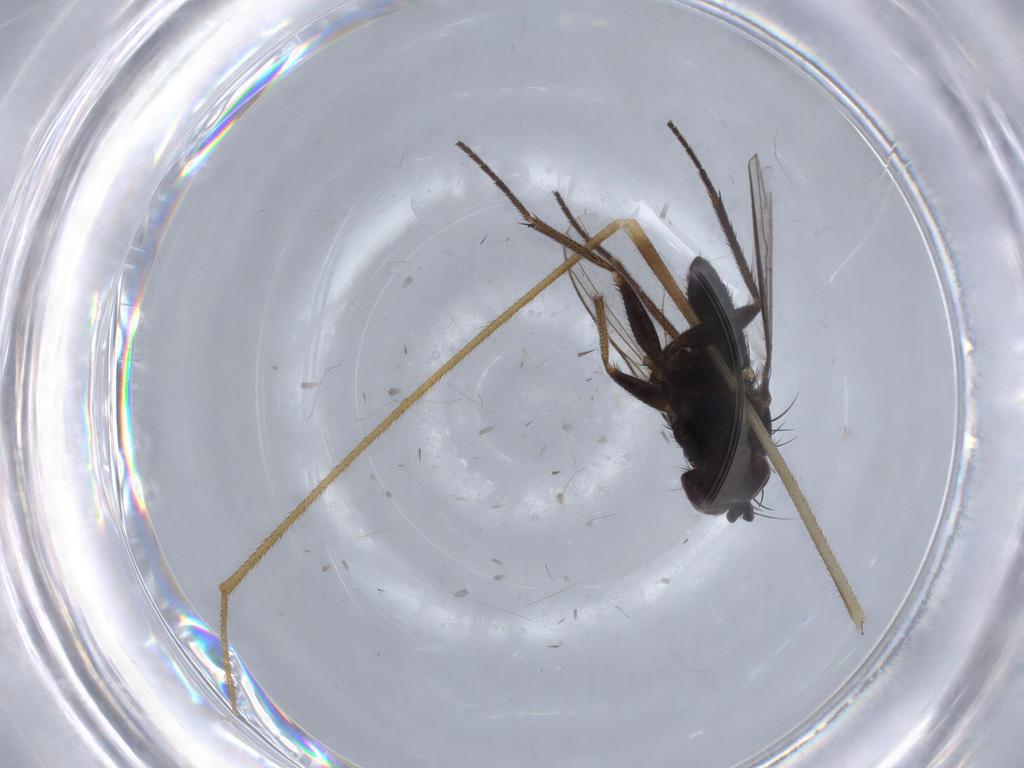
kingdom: Animalia
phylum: Arthropoda
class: Insecta
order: Diptera
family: Limoniidae
